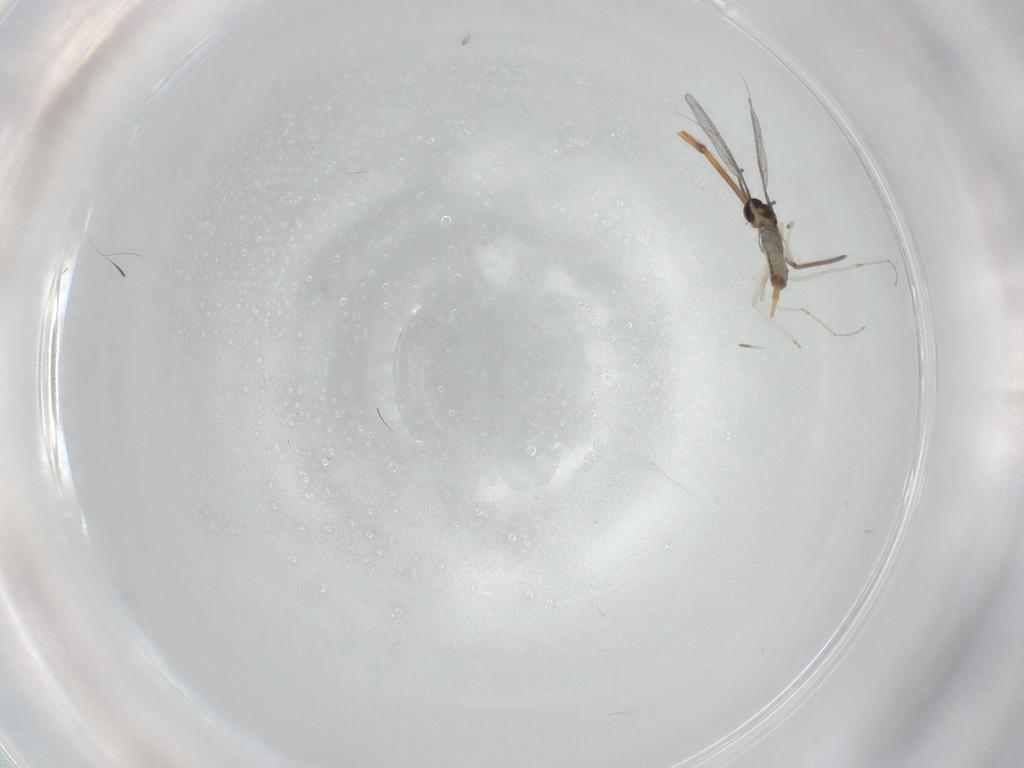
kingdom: Animalia
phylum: Arthropoda
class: Insecta
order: Diptera
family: Cecidomyiidae
